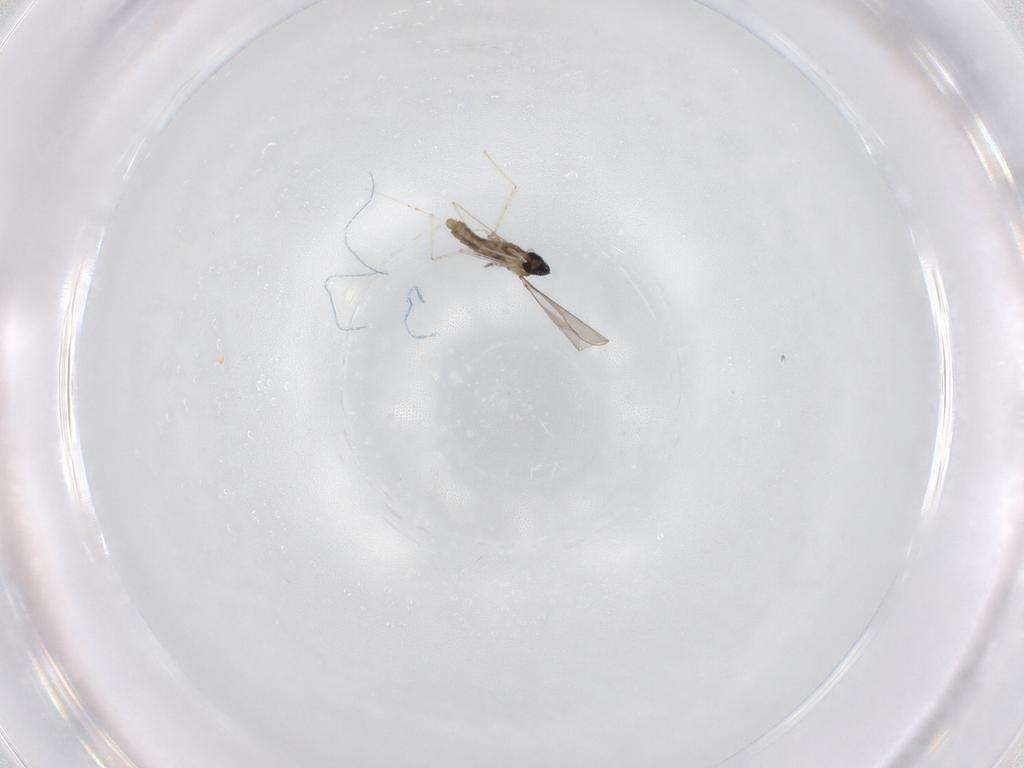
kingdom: Animalia
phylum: Arthropoda
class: Insecta
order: Diptera
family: Cecidomyiidae
